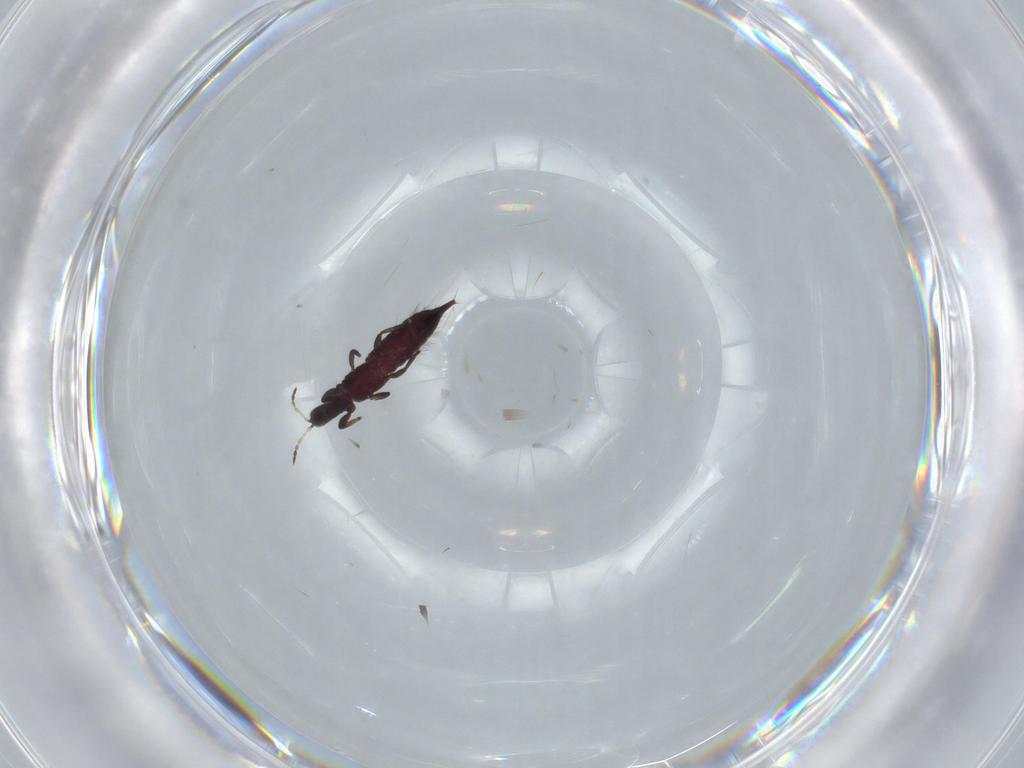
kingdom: Animalia
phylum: Arthropoda
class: Insecta
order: Thysanoptera
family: Phlaeothripidae
